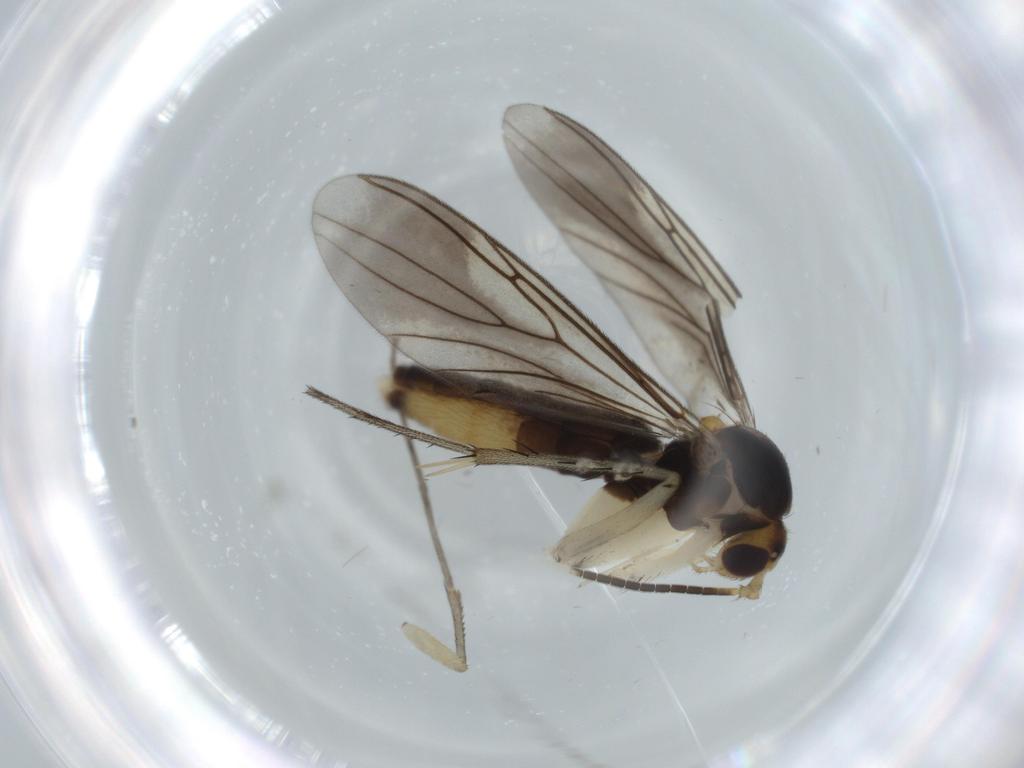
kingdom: Animalia
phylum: Arthropoda
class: Insecta
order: Diptera
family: Mycetophilidae
